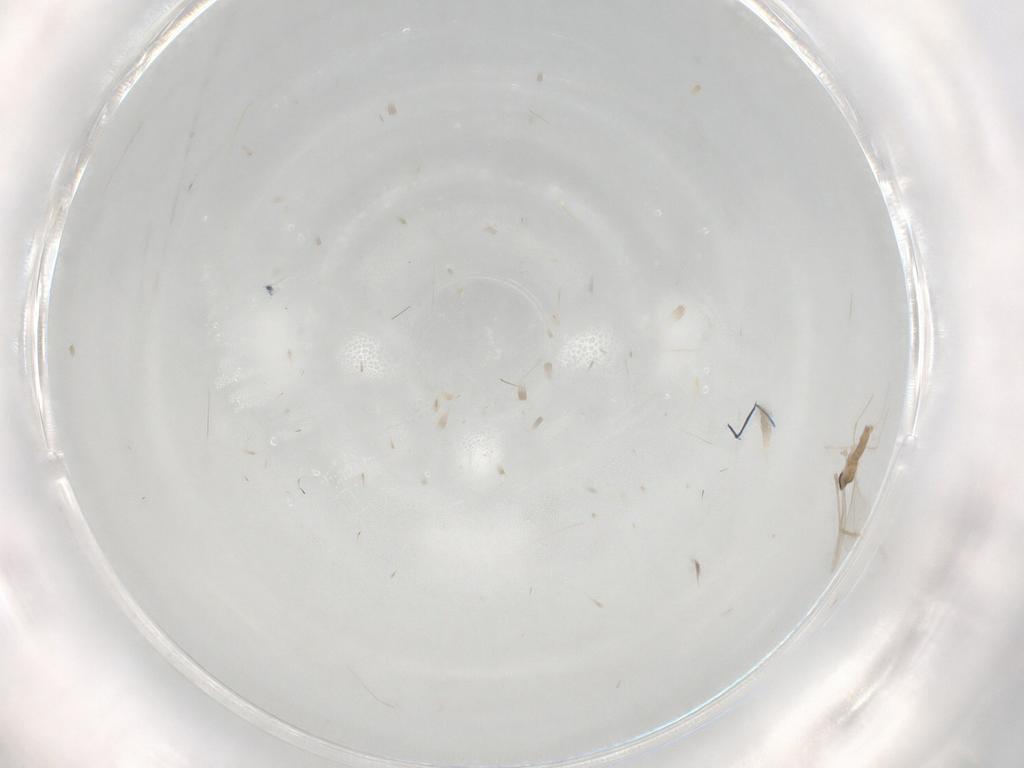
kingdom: Animalia
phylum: Arthropoda
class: Insecta
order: Diptera
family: Cecidomyiidae
